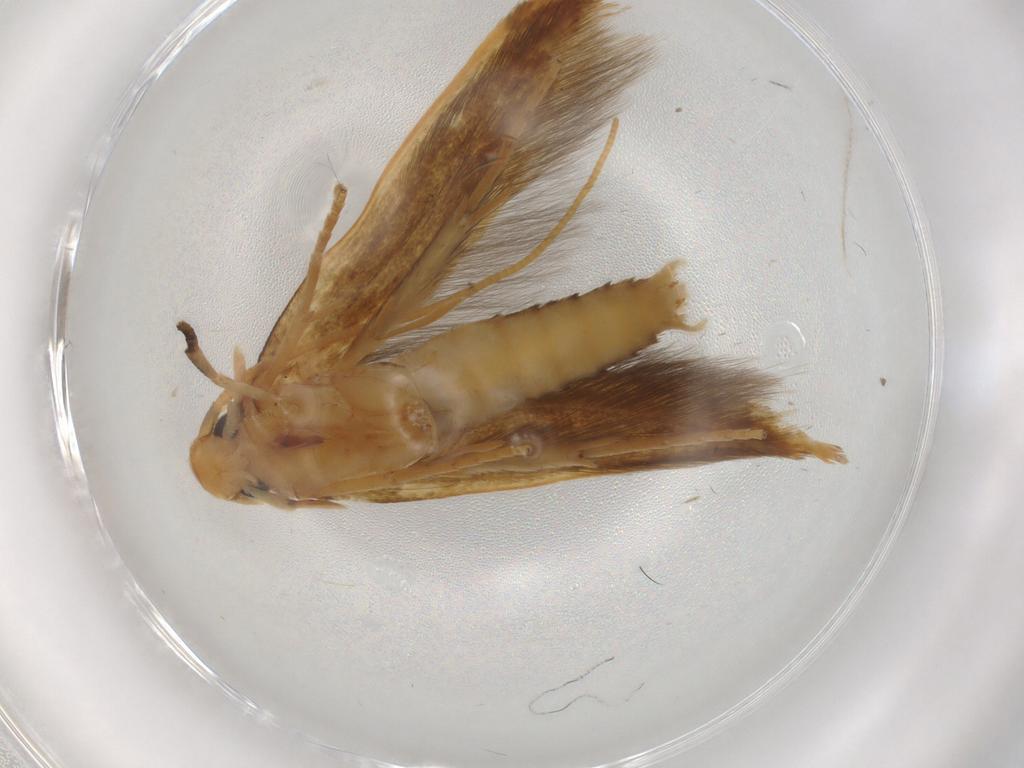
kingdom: Animalia
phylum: Arthropoda
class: Insecta
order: Lepidoptera
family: Tineidae
